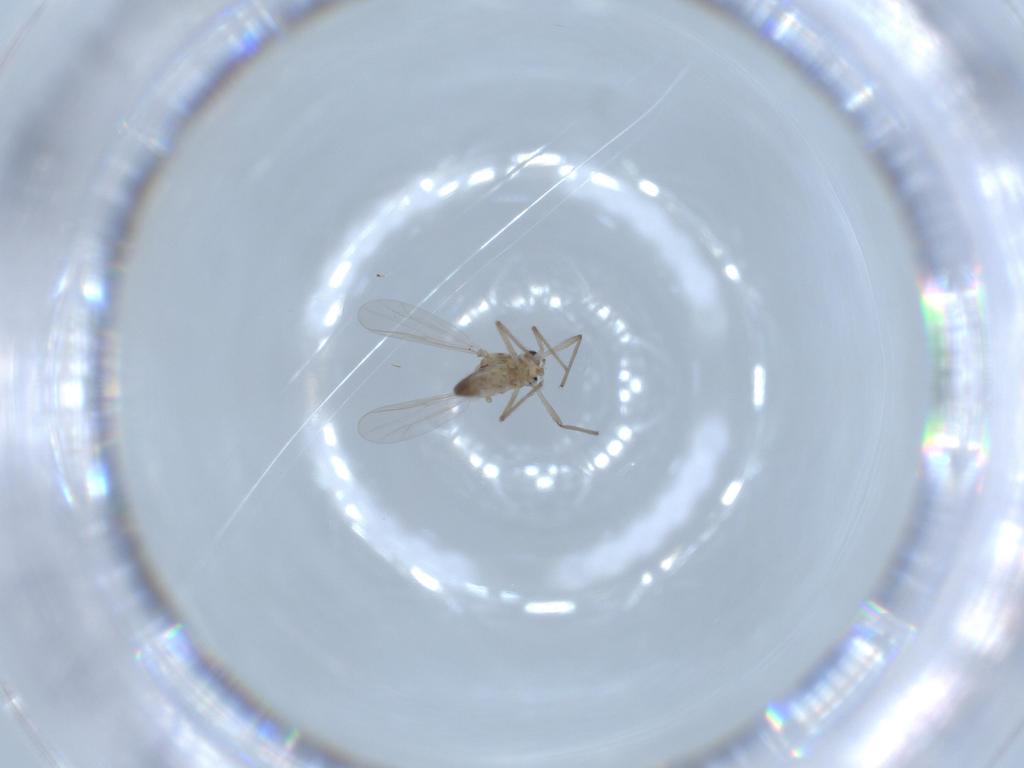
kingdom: Animalia
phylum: Arthropoda
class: Insecta
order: Diptera
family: Chironomidae
